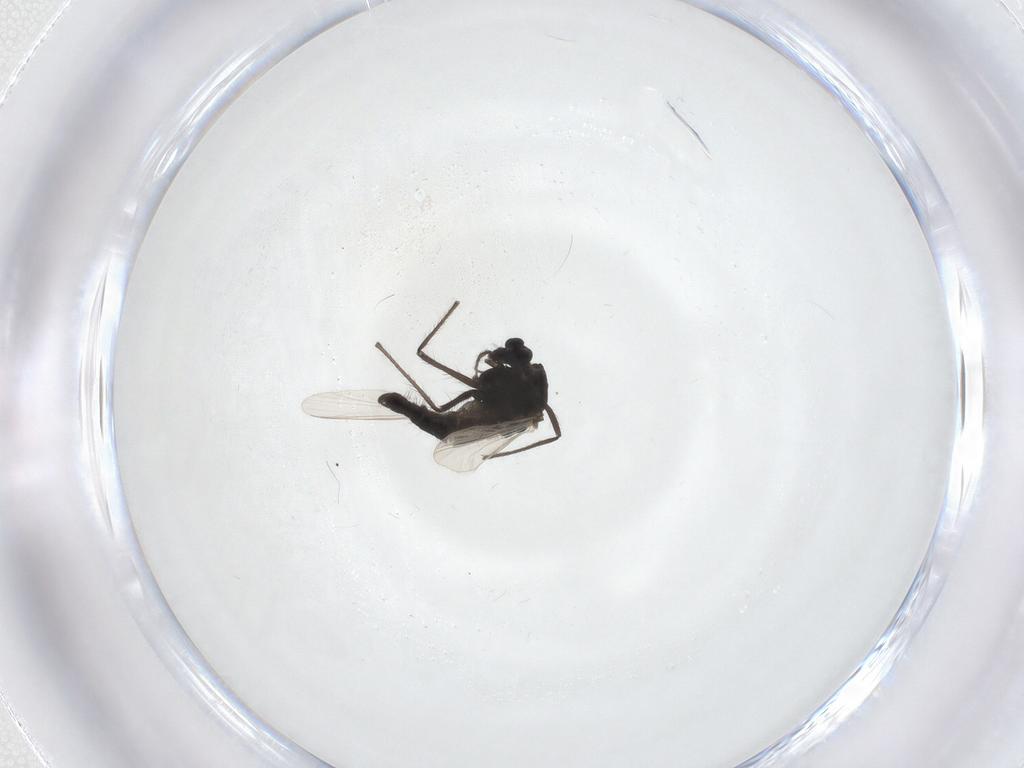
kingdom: Animalia
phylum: Arthropoda
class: Insecta
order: Diptera
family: Chironomidae
